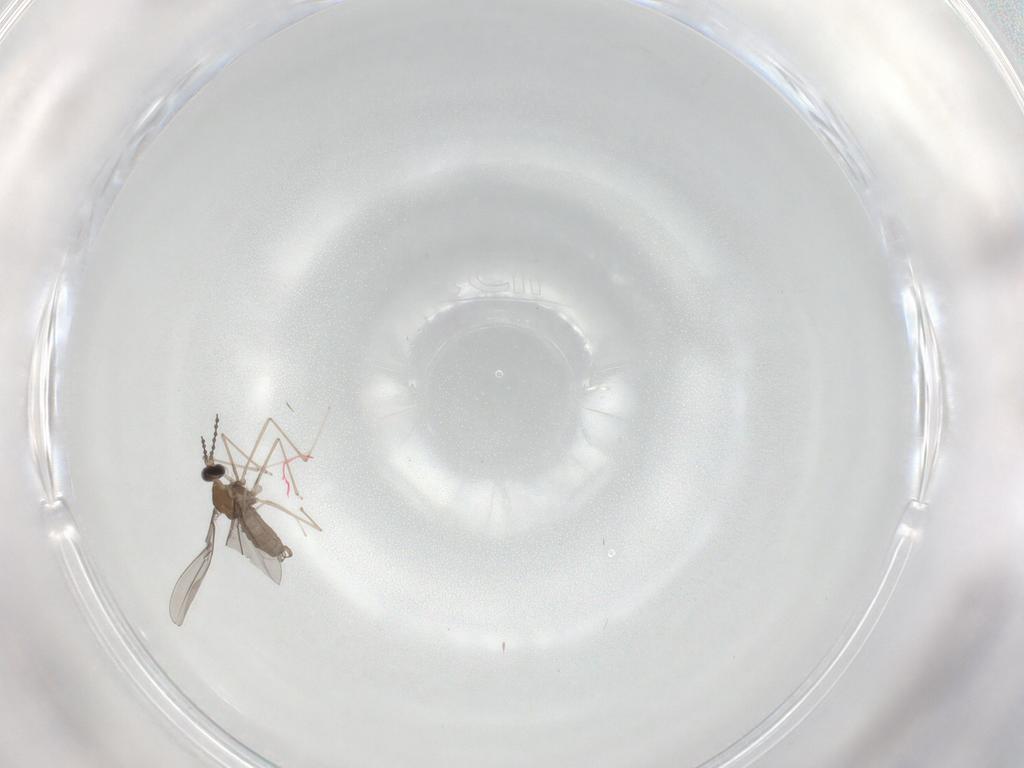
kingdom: Animalia
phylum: Arthropoda
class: Insecta
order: Diptera
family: Cecidomyiidae
